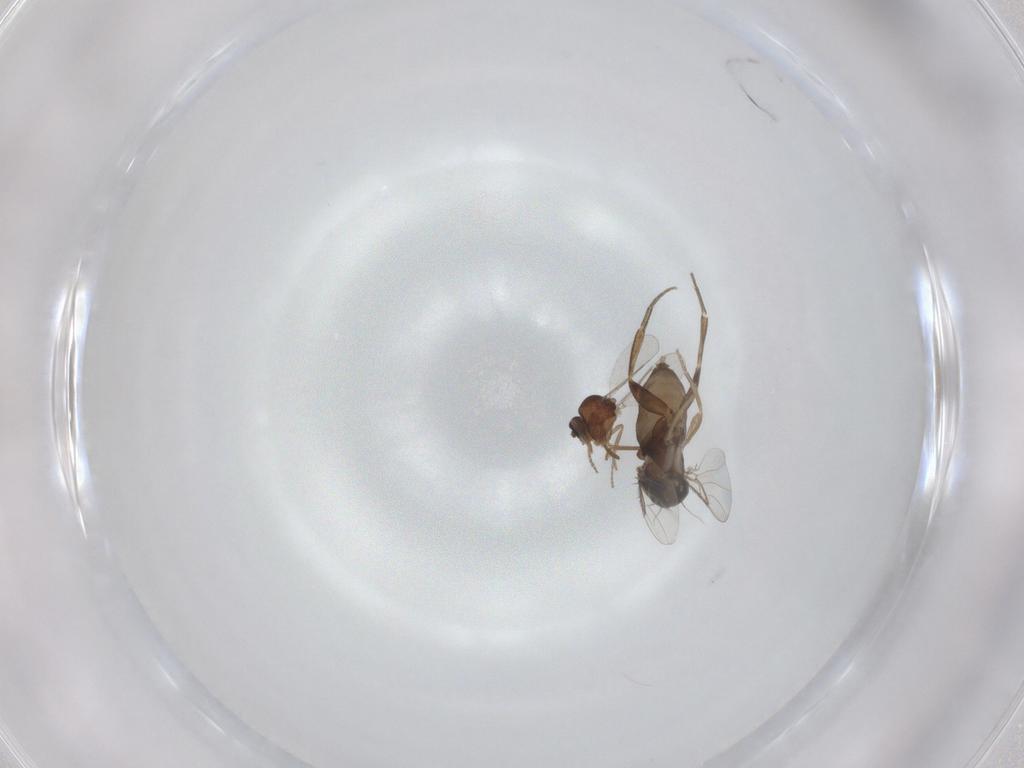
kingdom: Animalia
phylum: Arthropoda
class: Insecta
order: Diptera
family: Phoridae
